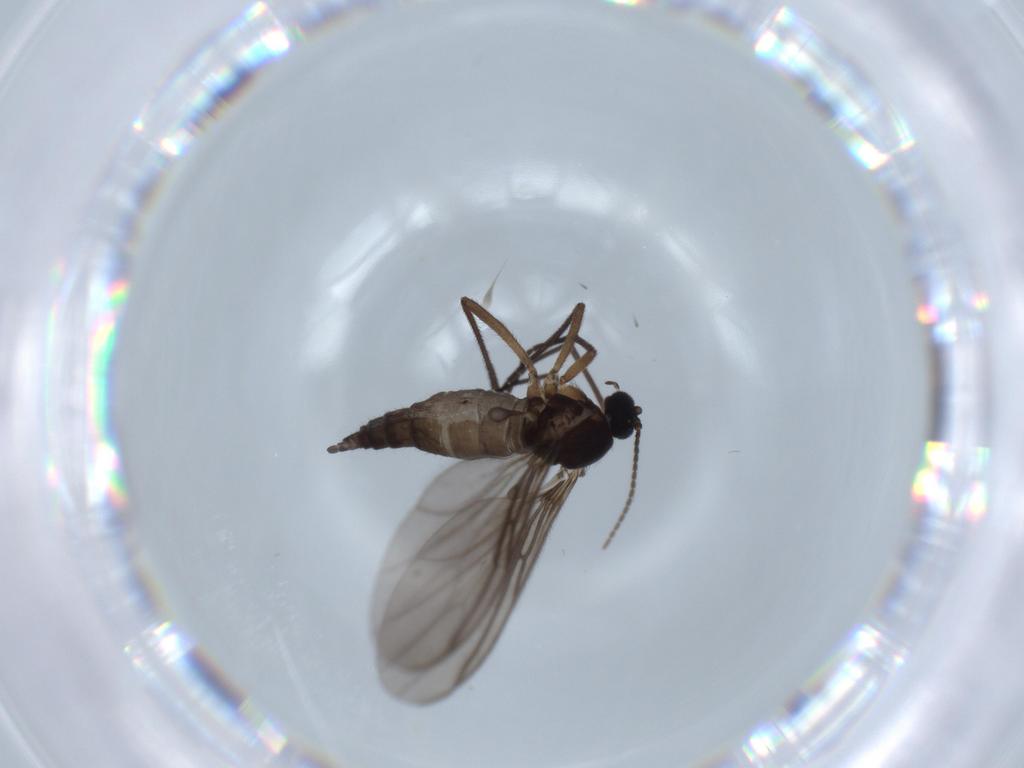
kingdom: Animalia
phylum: Arthropoda
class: Insecta
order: Diptera
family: Sciaridae
